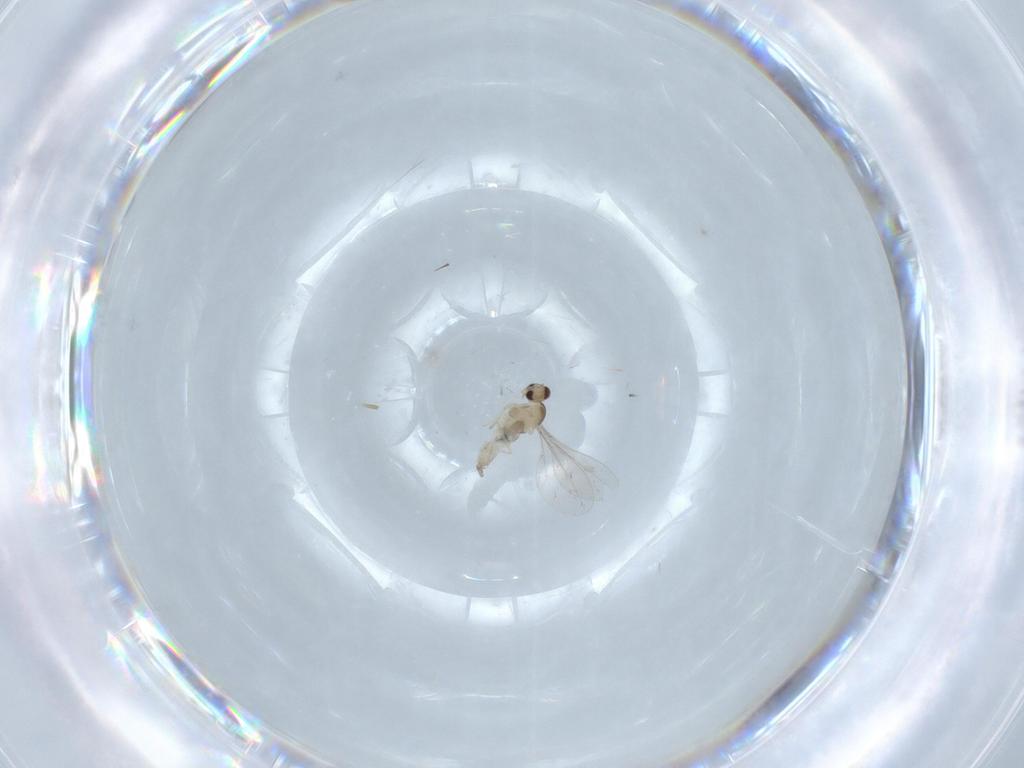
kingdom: Animalia
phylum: Arthropoda
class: Insecta
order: Diptera
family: Cecidomyiidae
